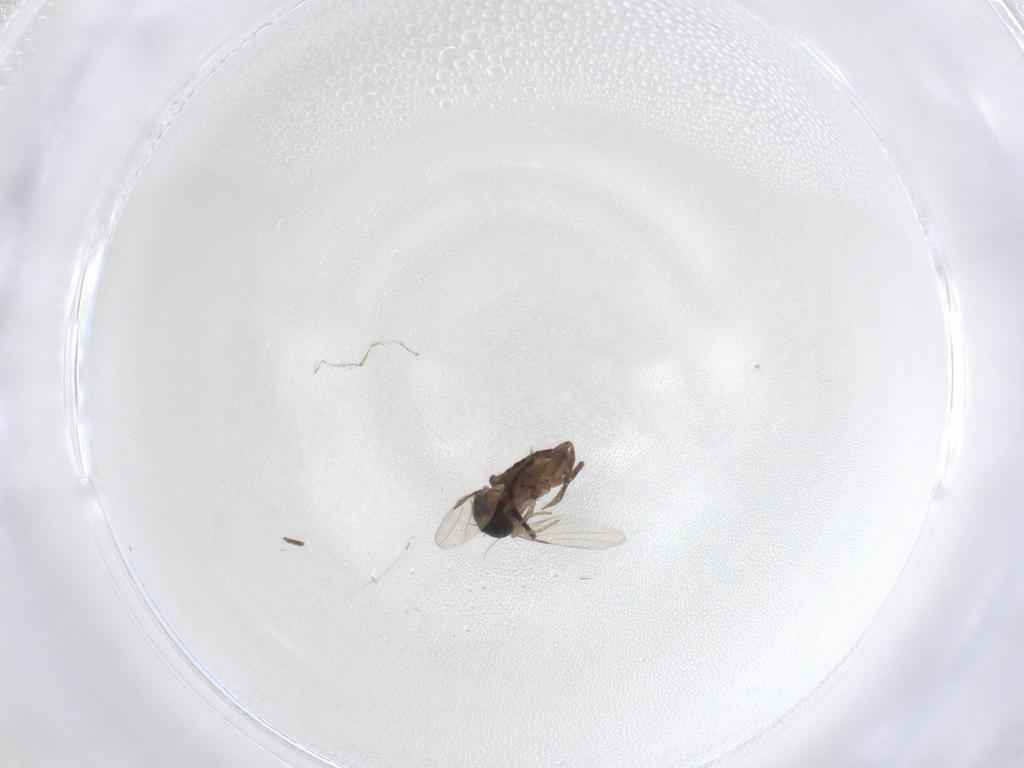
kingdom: Animalia
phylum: Arthropoda
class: Insecta
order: Diptera
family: Phoridae
